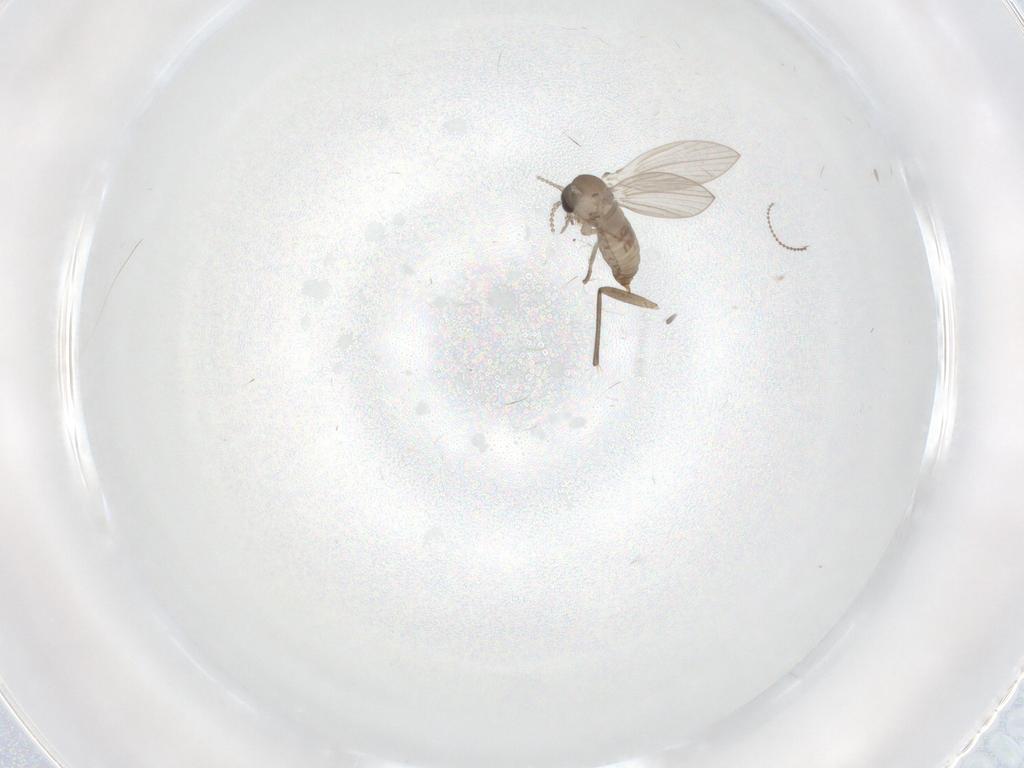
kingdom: Animalia
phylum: Arthropoda
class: Insecta
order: Diptera
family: Psychodidae
